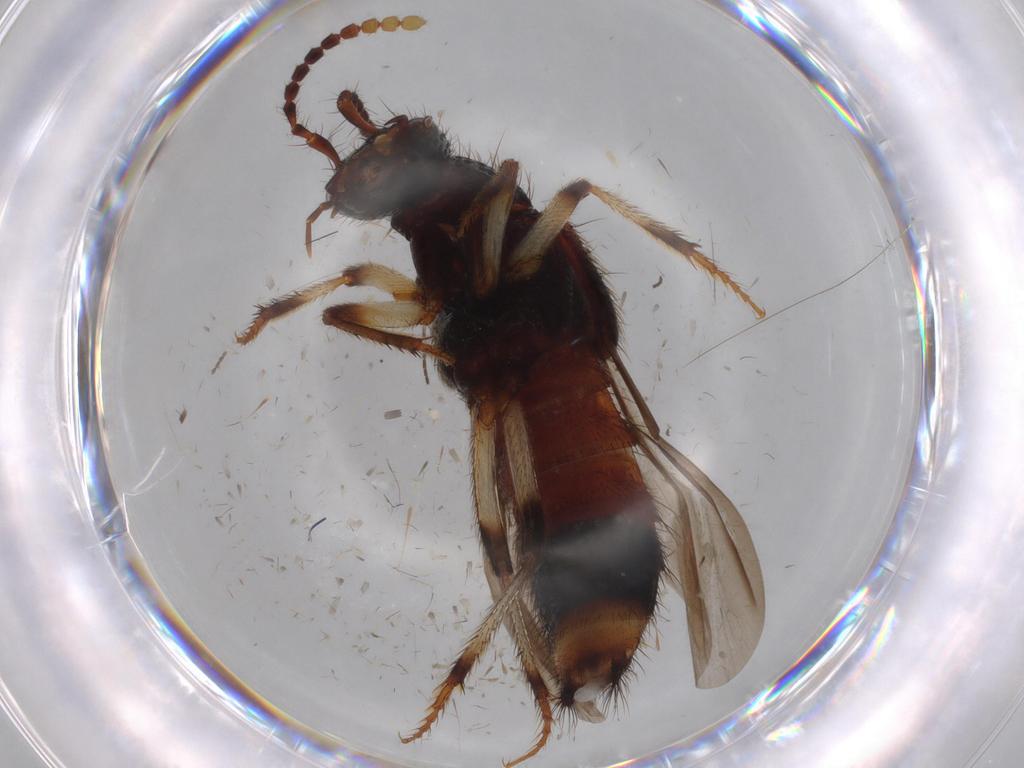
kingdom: Animalia
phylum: Arthropoda
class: Insecta
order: Coleoptera
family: Staphylinidae
